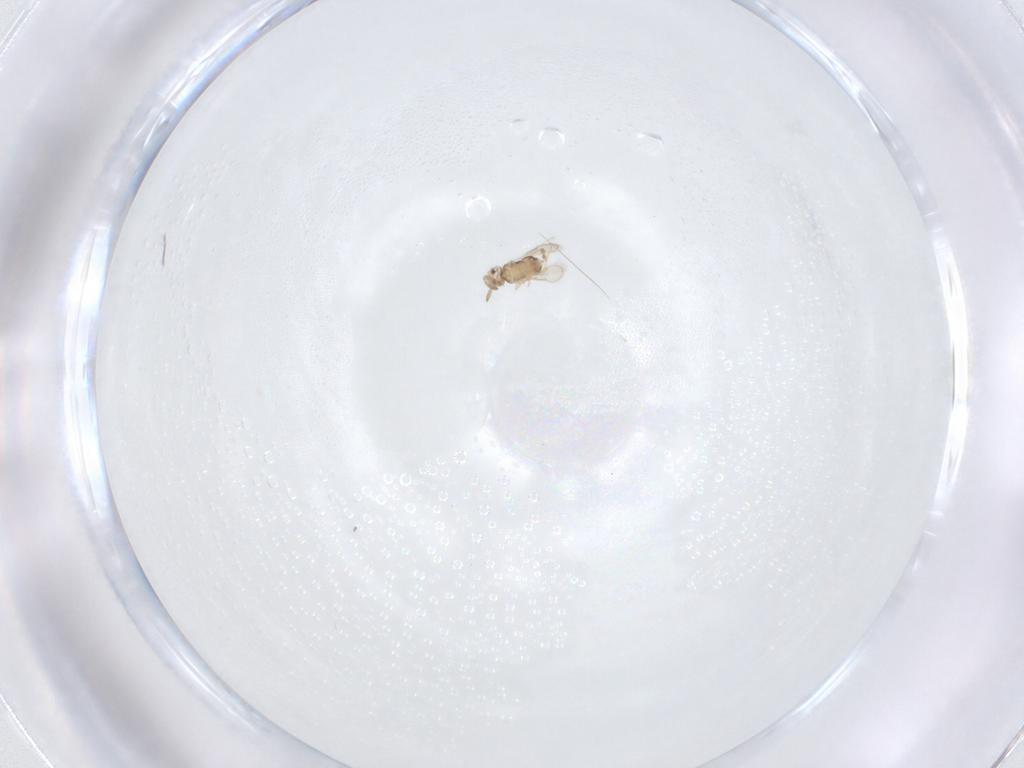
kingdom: Animalia
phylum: Arthropoda
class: Insecta
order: Hymenoptera
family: Aphelinidae
